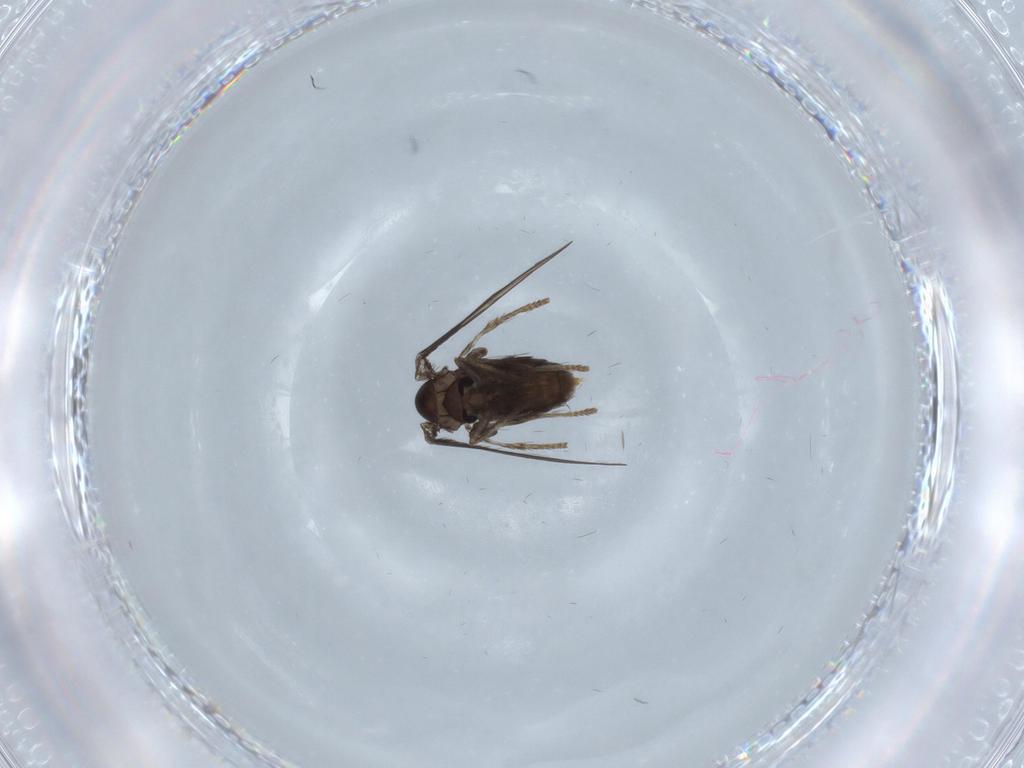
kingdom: Animalia
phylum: Arthropoda
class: Insecta
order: Diptera
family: Psychodidae
